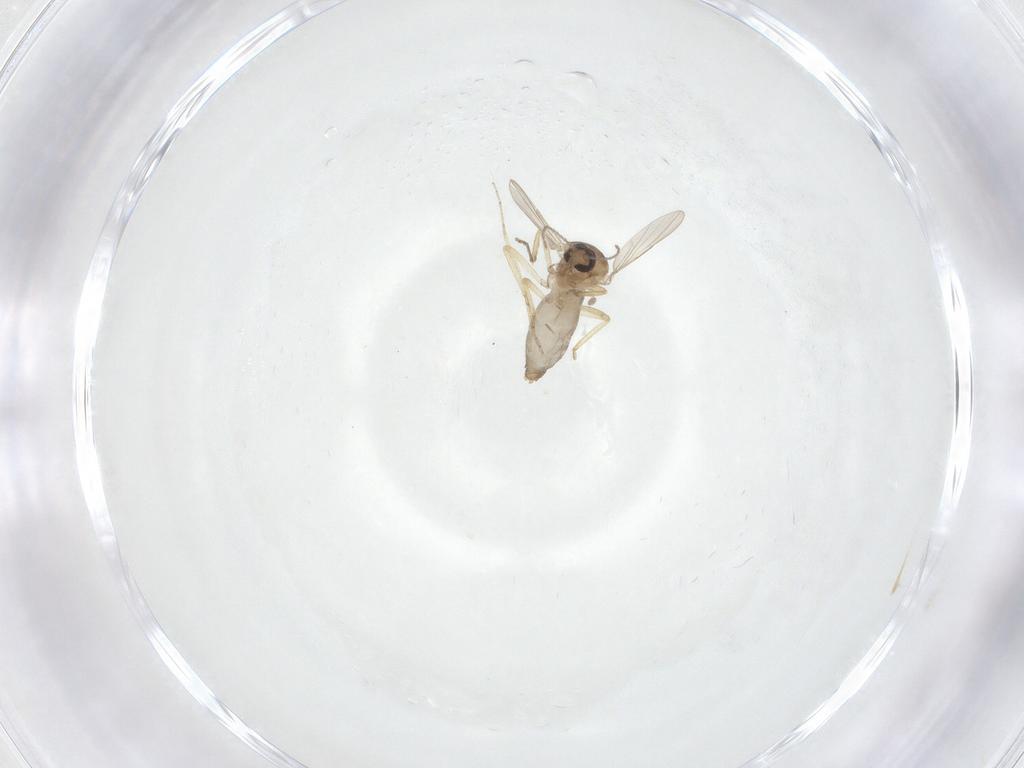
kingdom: Animalia
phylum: Arthropoda
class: Insecta
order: Diptera
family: Ceratopogonidae
